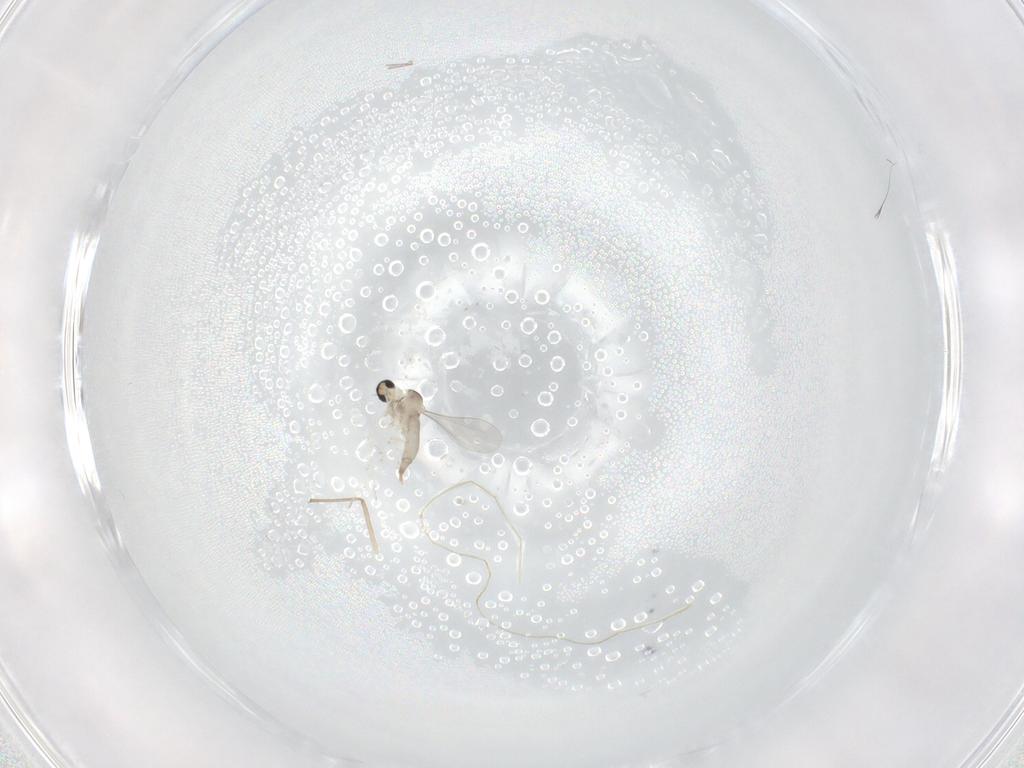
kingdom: Animalia
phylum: Arthropoda
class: Insecta
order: Diptera
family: Cecidomyiidae
